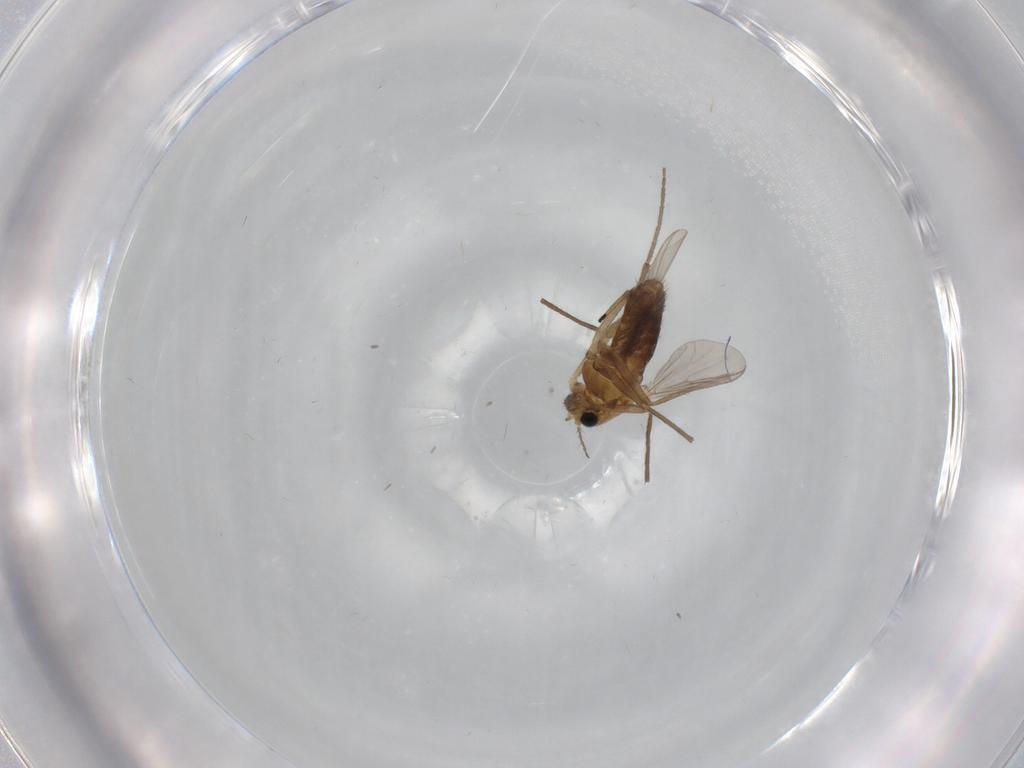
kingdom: Animalia
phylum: Arthropoda
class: Insecta
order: Diptera
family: Chironomidae
